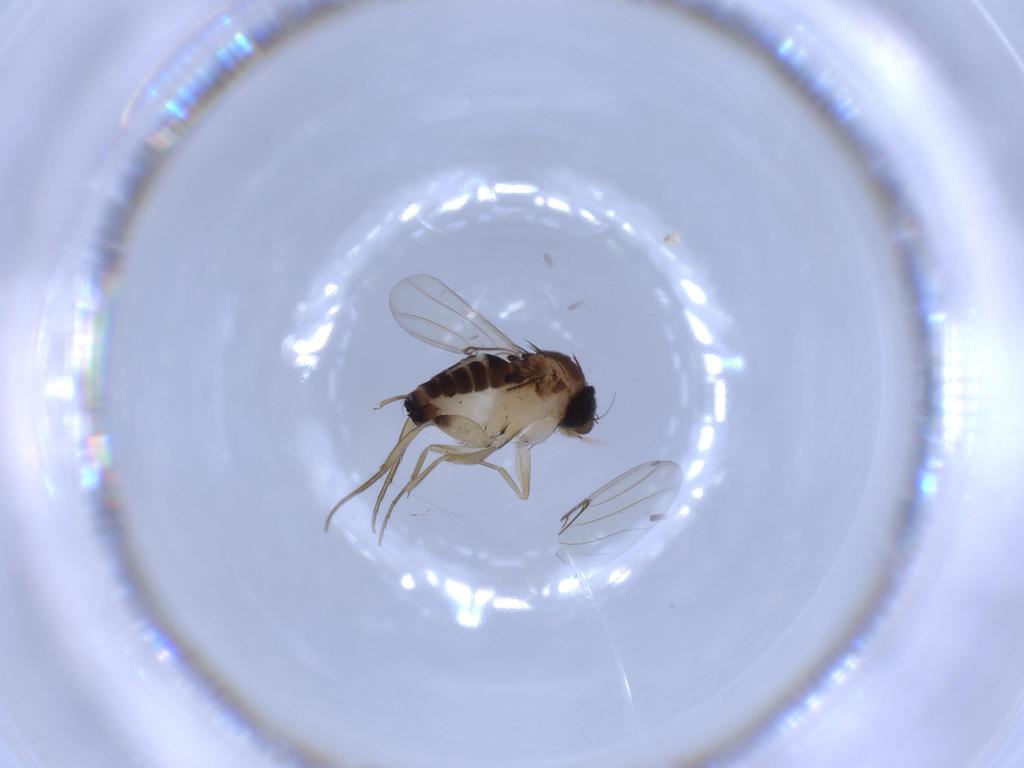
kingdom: Animalia
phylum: Arthropoda
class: Insecta
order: Diptera
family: Phoridae
